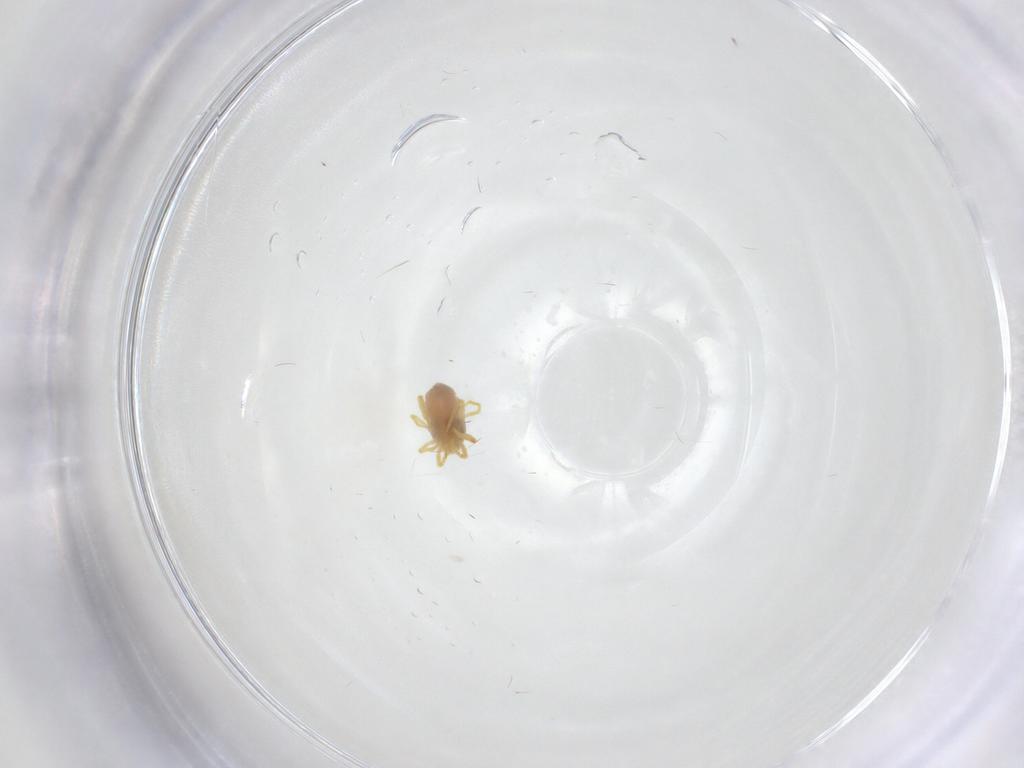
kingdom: Animalia
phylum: Arthropoda
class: Arachnida
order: Trombidiformes
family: Sphaerolichidae
